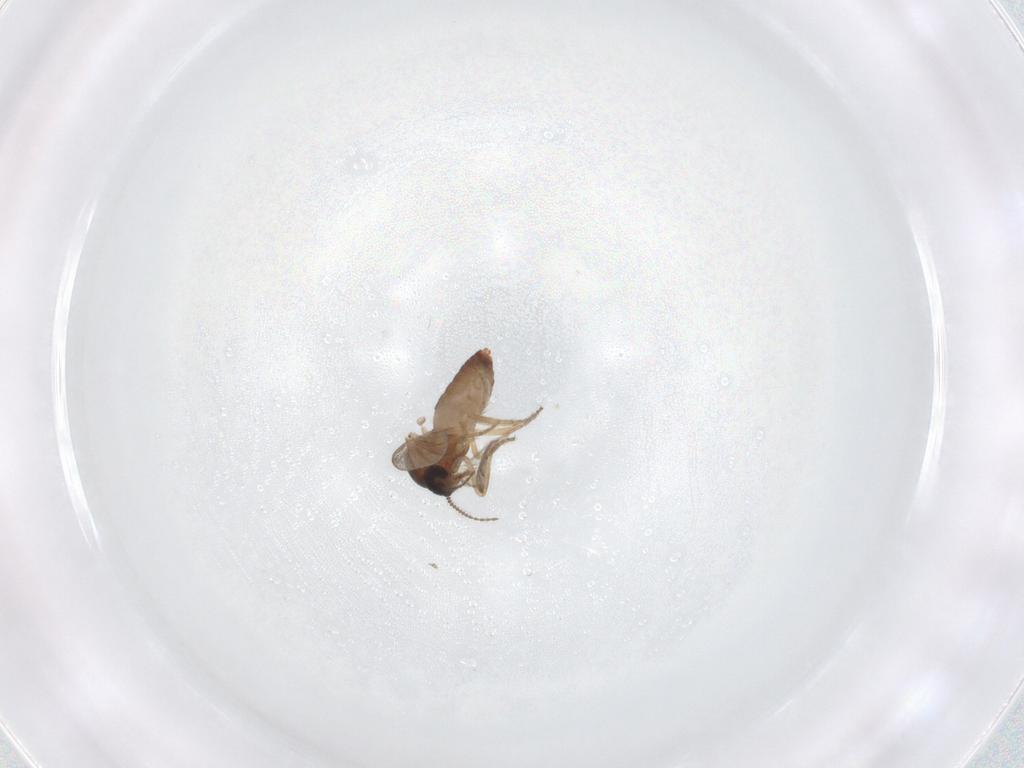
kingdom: Animalia
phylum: Arthropoda
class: Insecta
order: Diptera
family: Ceratopogonidae
